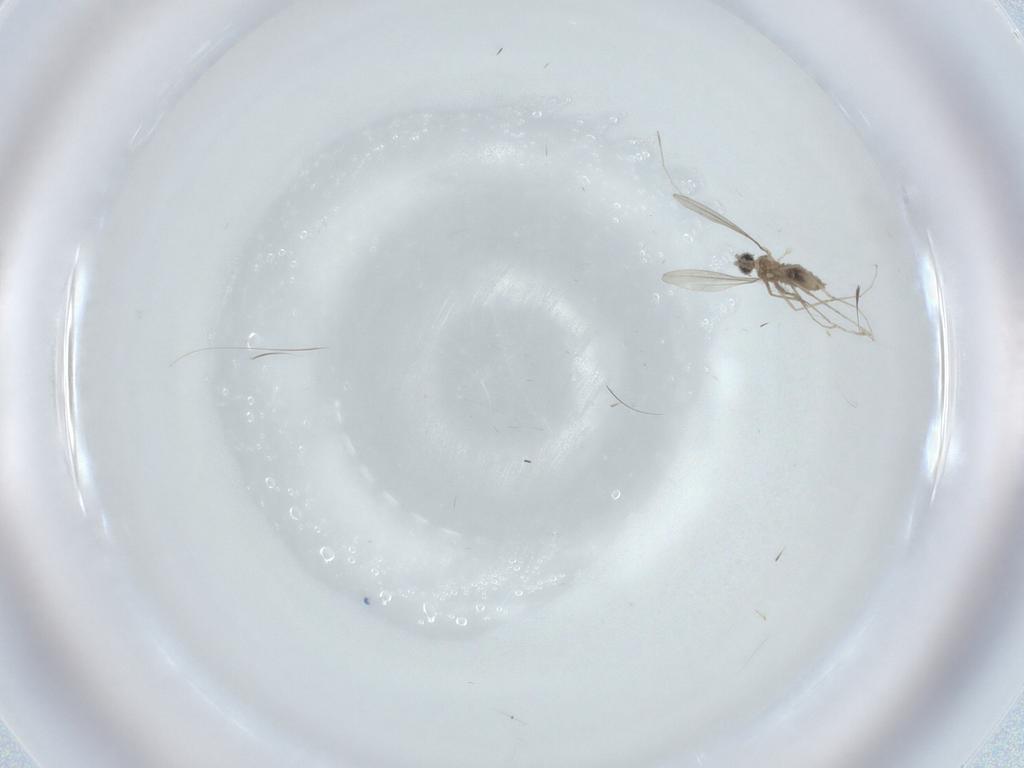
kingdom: Animalia
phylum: Arthropoda
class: Insecta
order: Diptera
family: Cecidomyiidae
